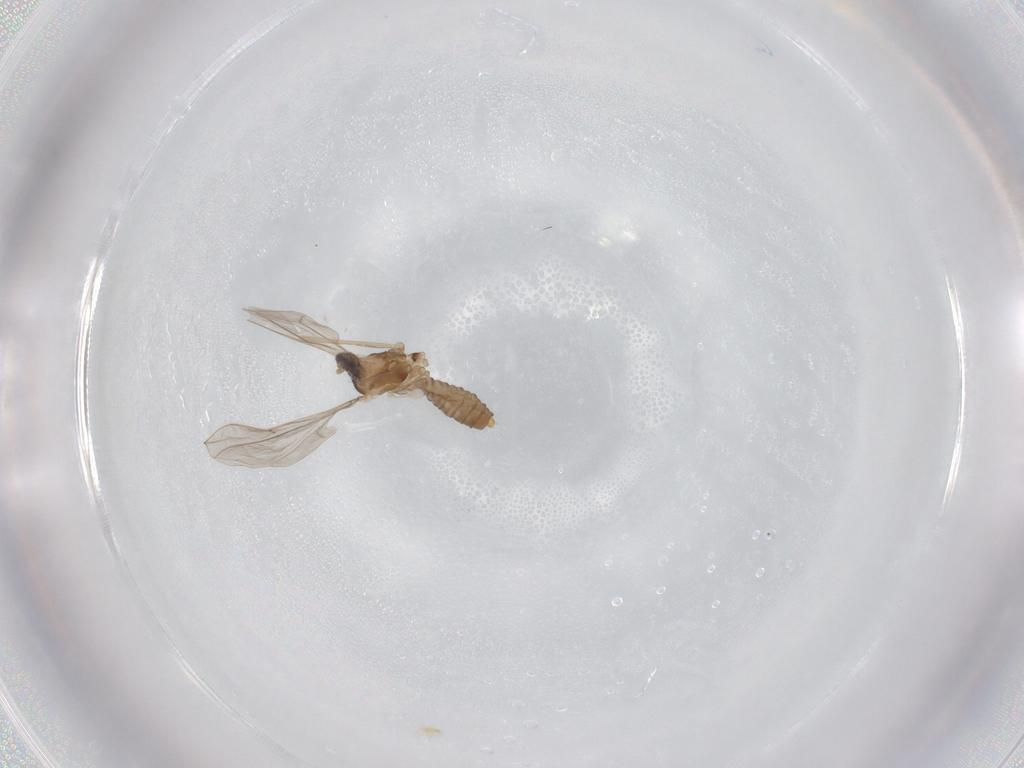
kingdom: Animalia
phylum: Arthropoda
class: Insecta
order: Diptera
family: Cecidomyiidae
